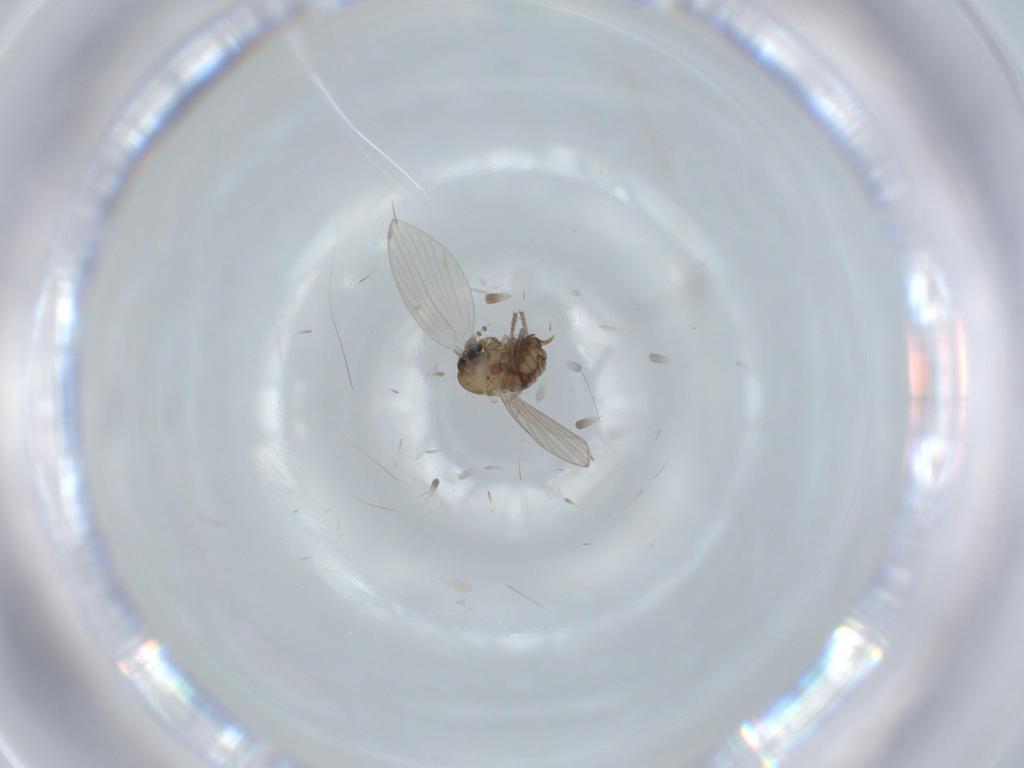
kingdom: Animalia
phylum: Arthropoda
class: Insecta
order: Diptera
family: Psychodidae
